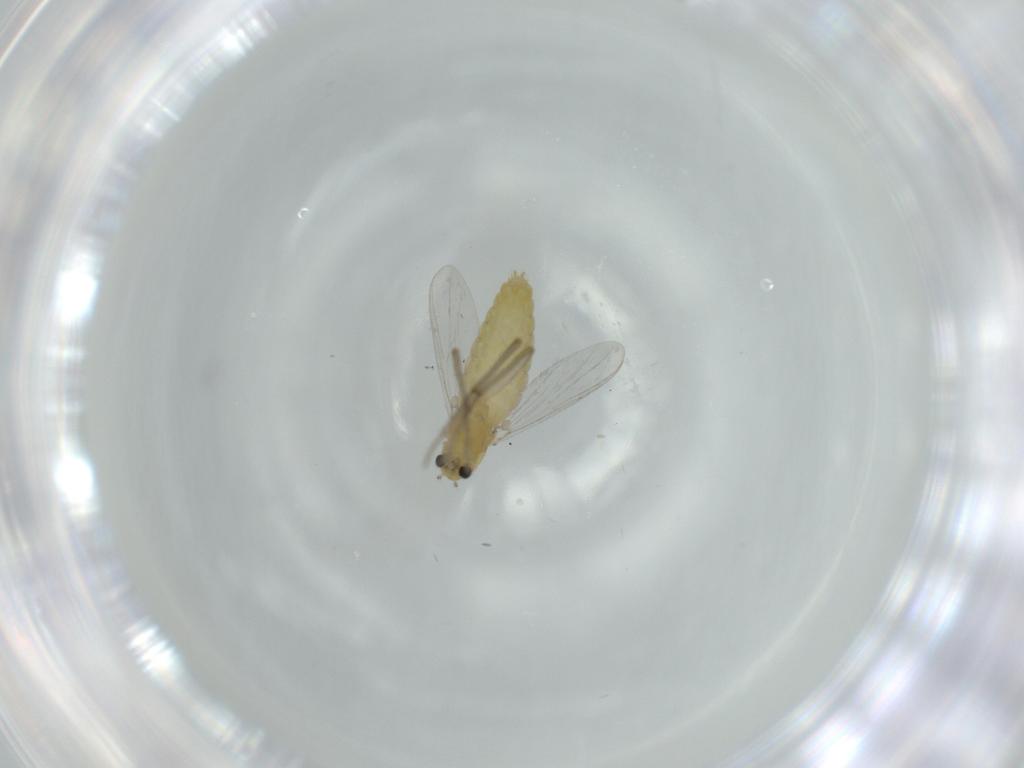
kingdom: Animalia
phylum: Arthropoda
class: Insecta
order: Diptera
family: Chironomidae
